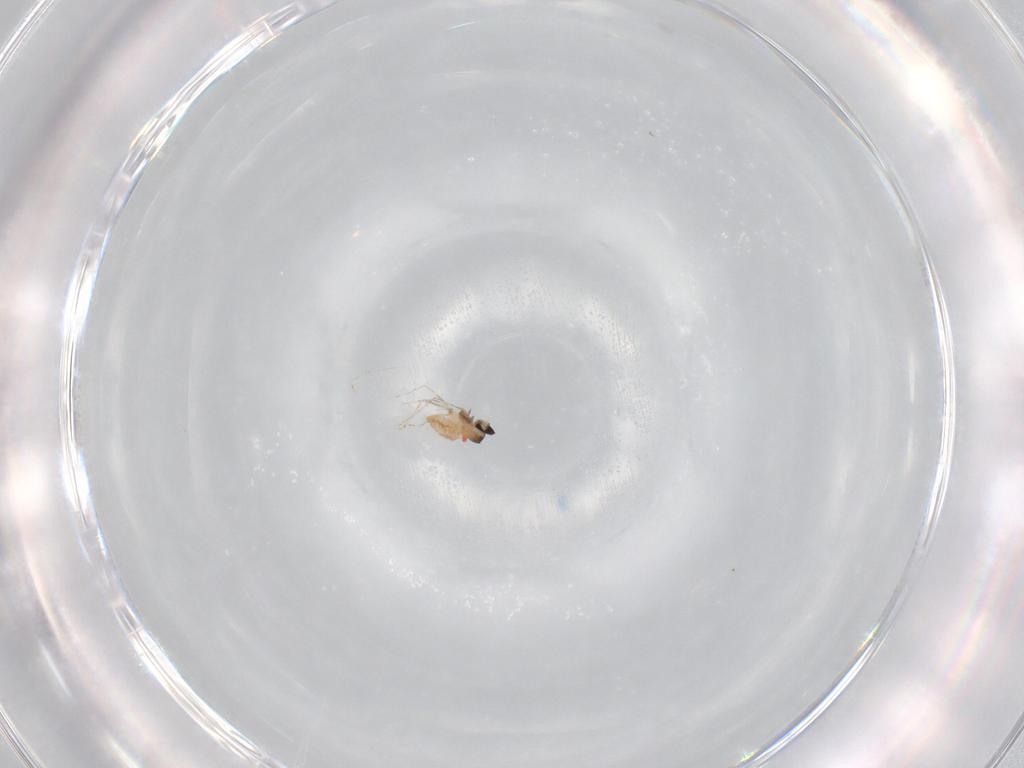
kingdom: Animalia
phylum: Arthropoda
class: Insecta
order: Diptera
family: Cecidomyiidae
